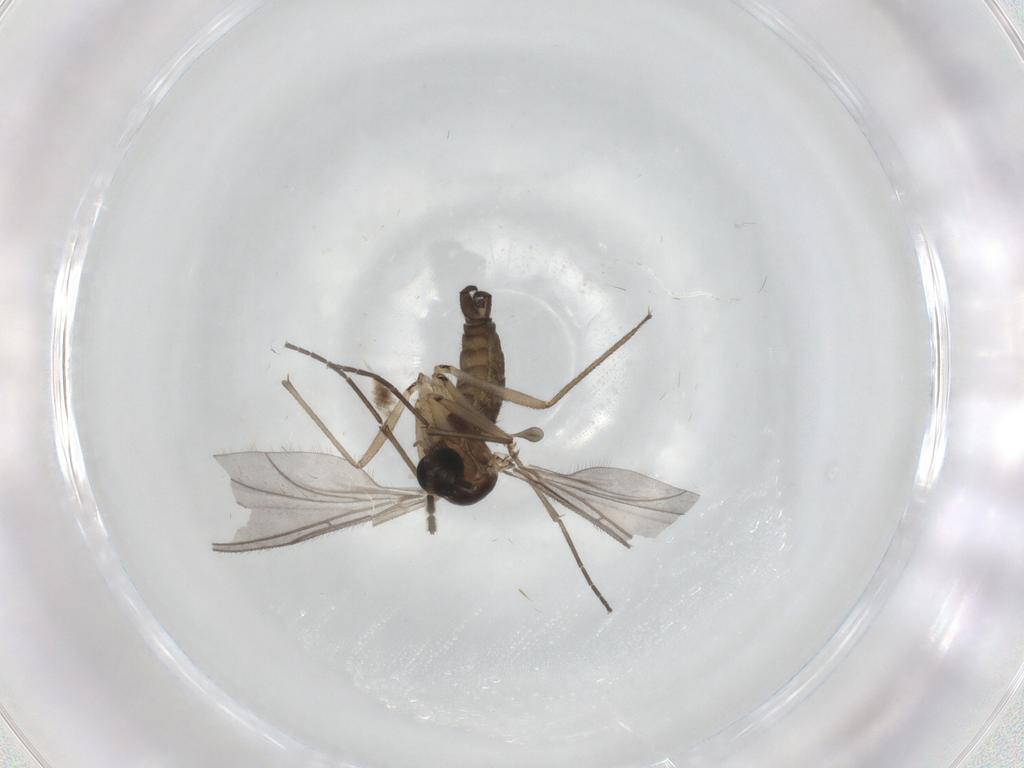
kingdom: Animalia
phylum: Arthropoda
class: Insecta
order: Diptera
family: Sciaridae
